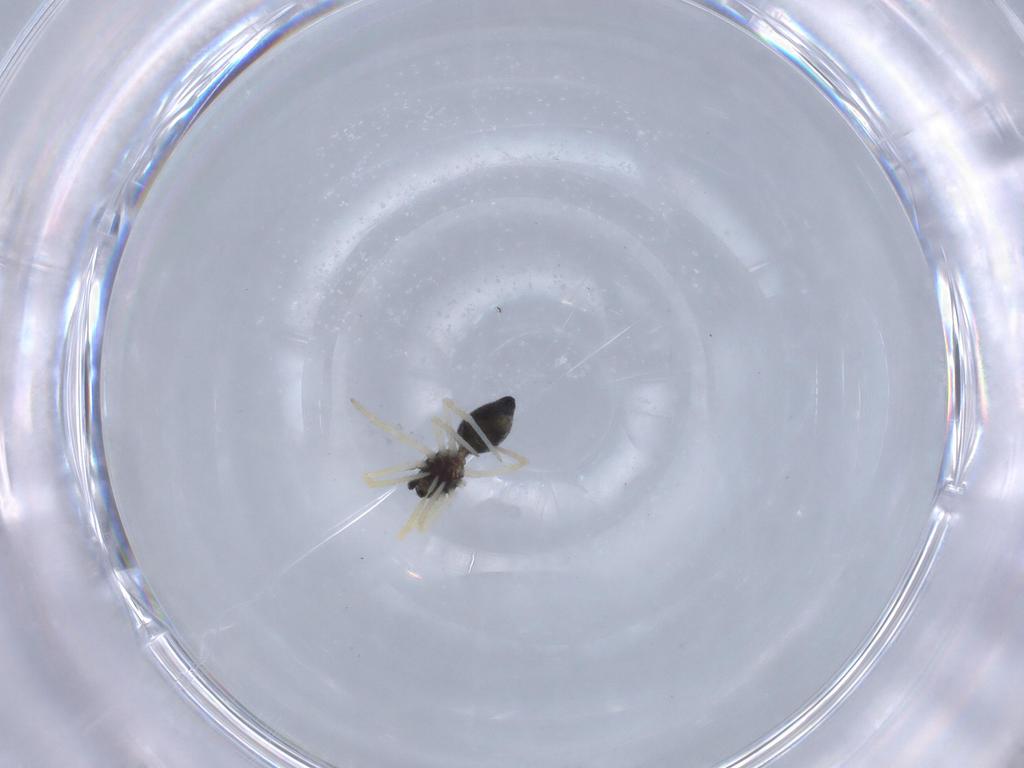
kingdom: Animalia
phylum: Arthropoda
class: Arachnida
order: Araneae
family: Theridiidae
